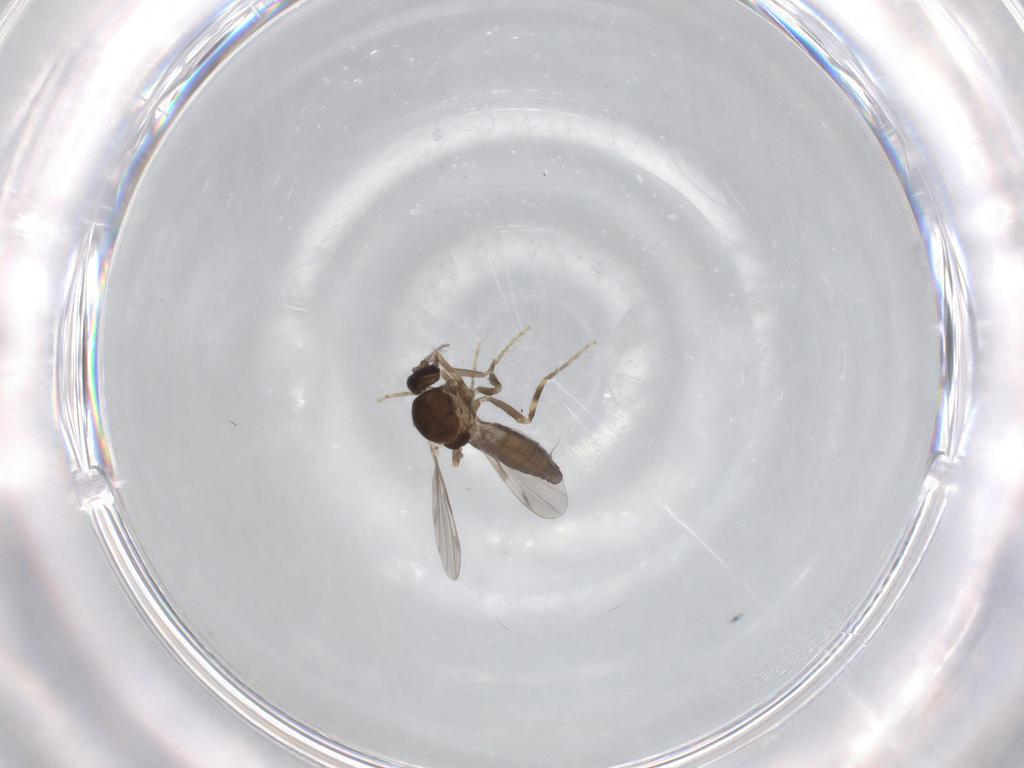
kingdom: Animalia
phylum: Arthropoda
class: Insecta
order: Diptera
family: Ceratopogonidae
